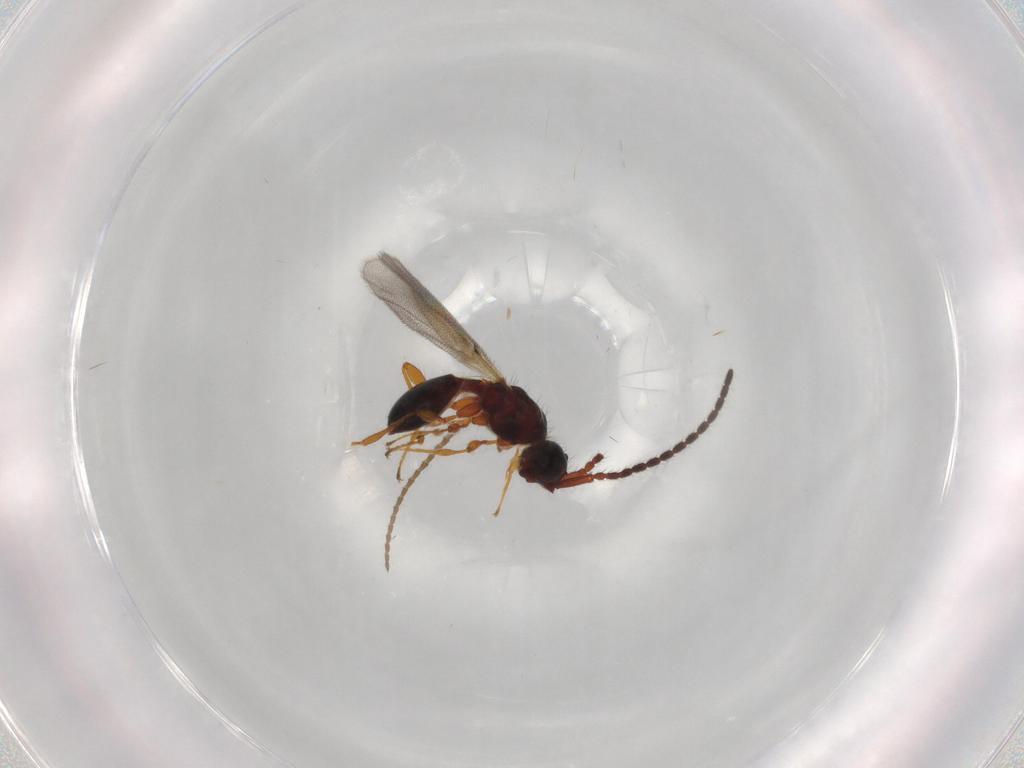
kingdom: Animalia
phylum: Arthropoda
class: Insecta
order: Hymenoptera
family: Diapriidae
